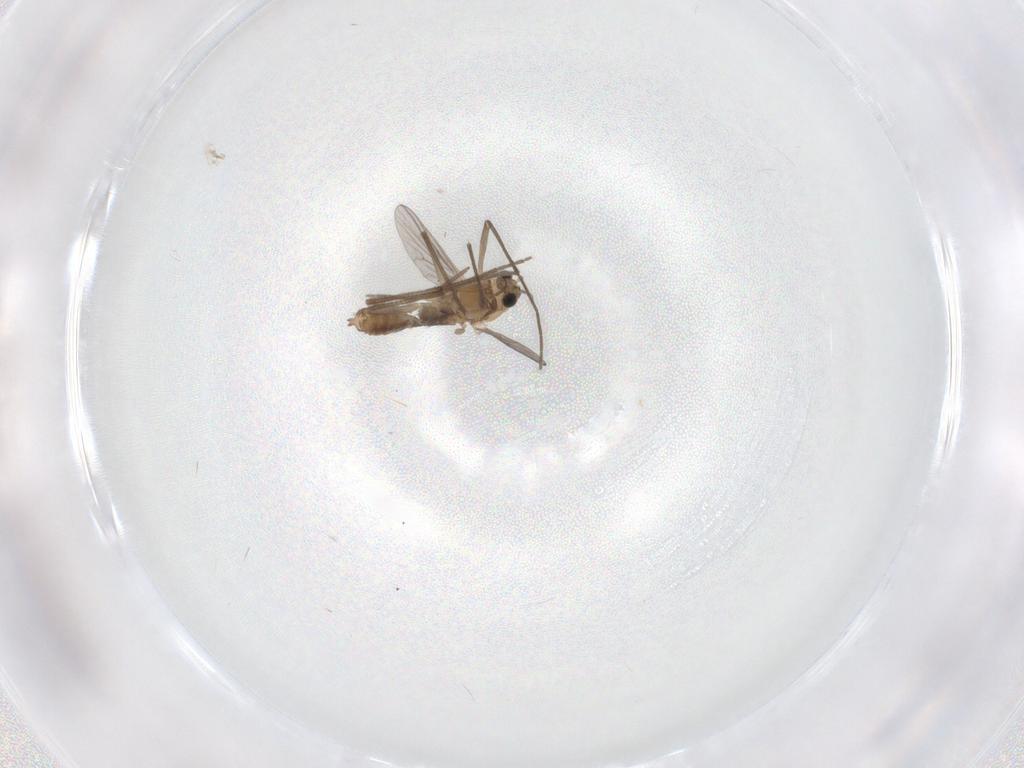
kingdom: Animalia
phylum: Arthropoda
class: Insecta
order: Diptera
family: Chironomidae
